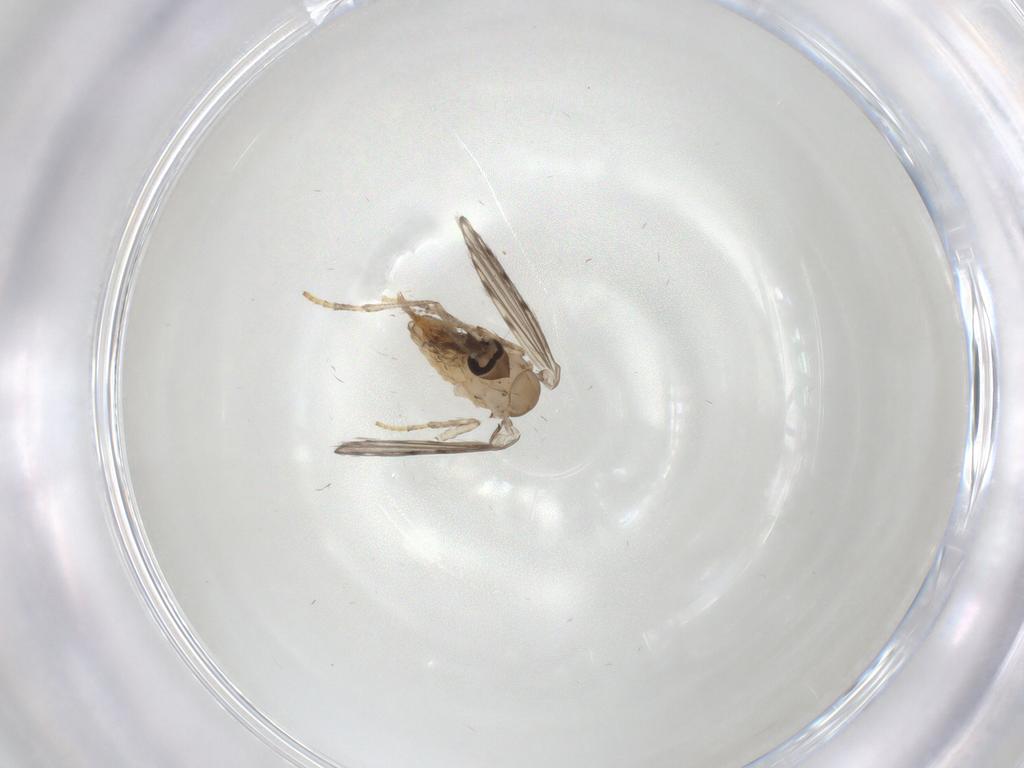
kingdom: Animalia
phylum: Arthropoda
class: Insecta
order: Diptera
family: Psychodidae
